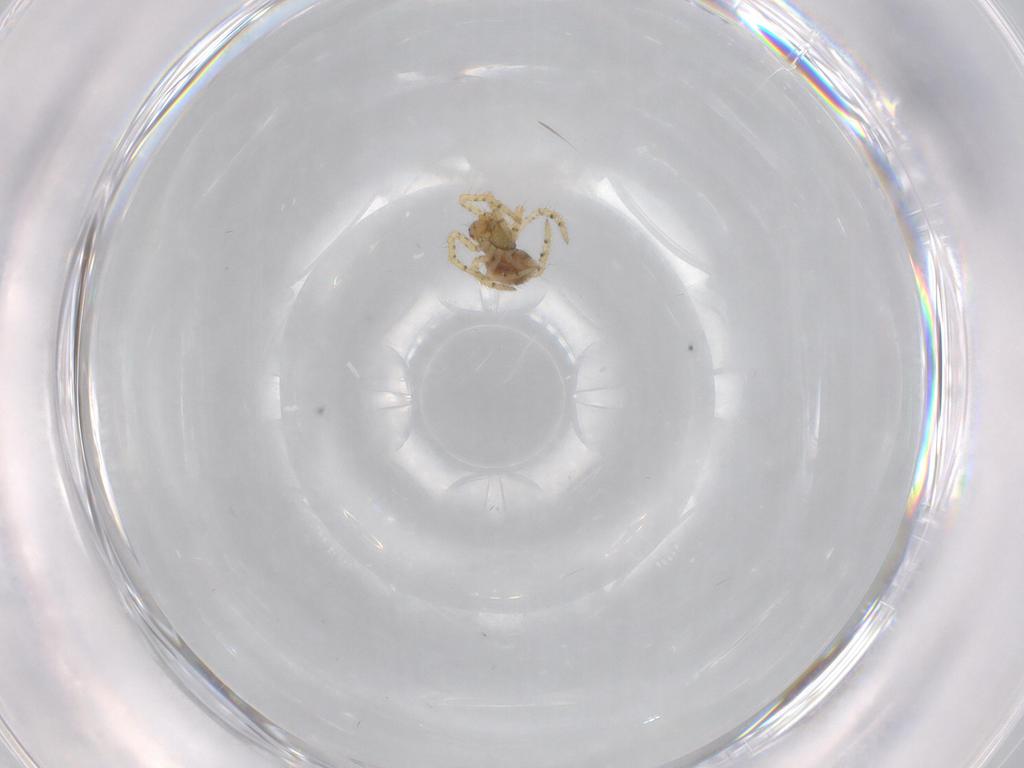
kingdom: Animalia
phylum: Arthropoda
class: Arachnida
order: Araneae
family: Theridiidae
